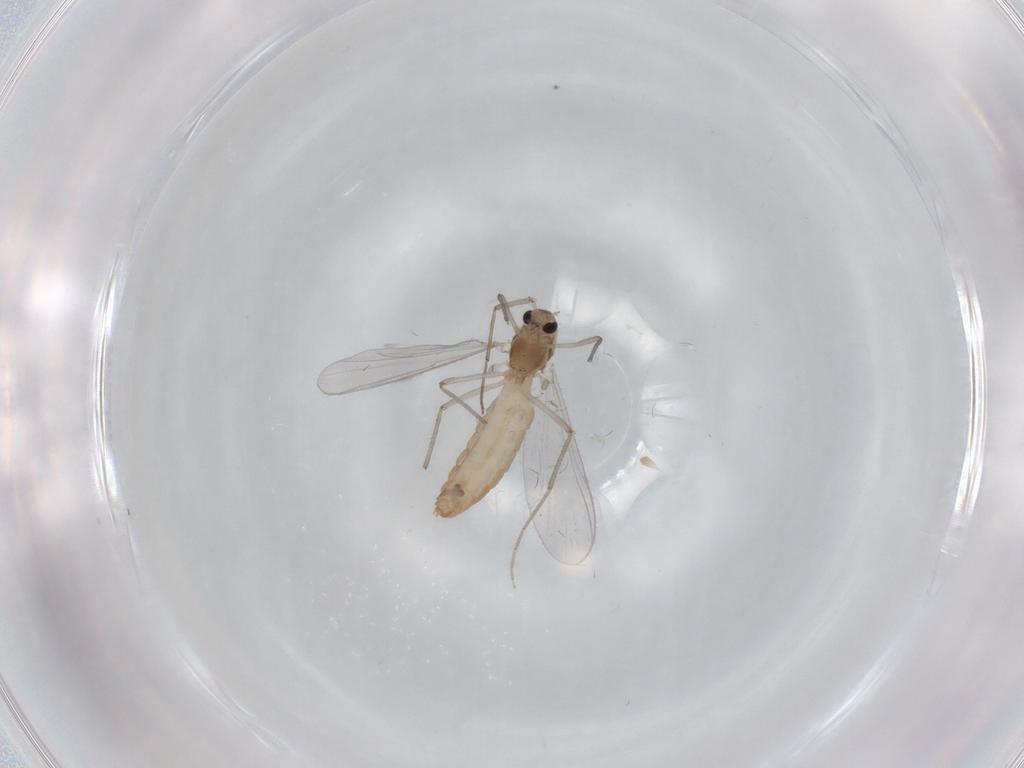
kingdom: Animalia
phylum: Arthropoda
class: Insecta
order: Diptera
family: Chironomidae
